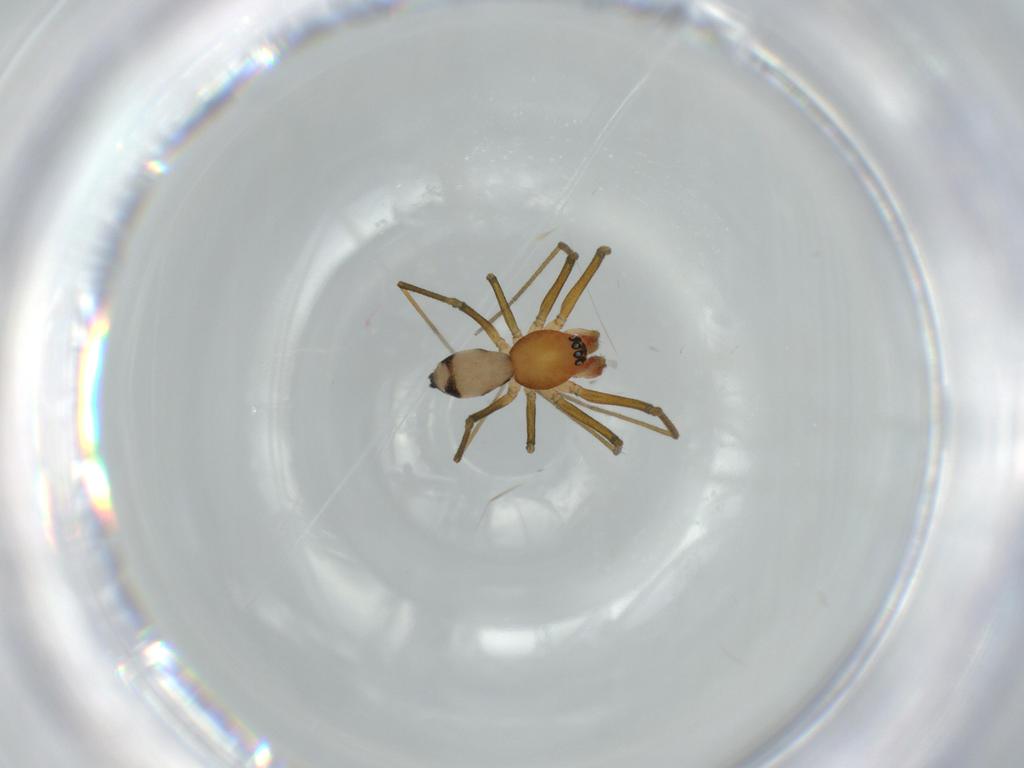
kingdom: Animalia
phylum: Arthropoda
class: Arachnida
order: Araneae
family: Linyphiidae
